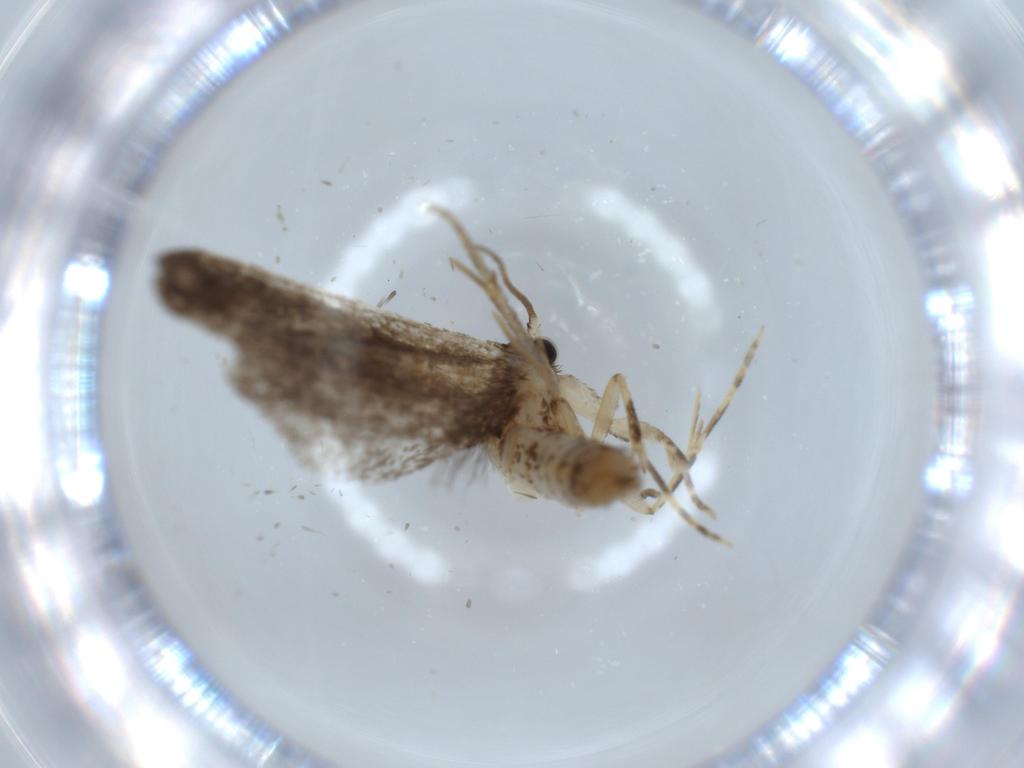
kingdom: Animalia
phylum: Arthropoda
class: Insecta
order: Lepidoptera
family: Tineidae
